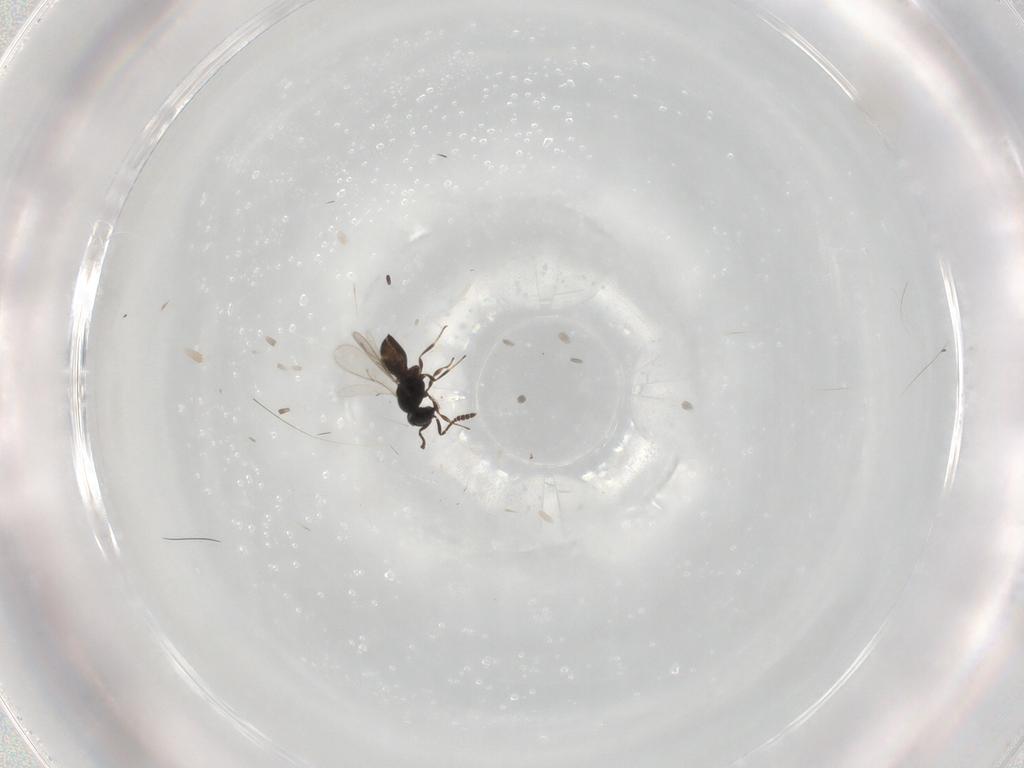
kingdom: Animalia
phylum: Arthropoda
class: Insecta
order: Hymenoptera
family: Scelionidae
